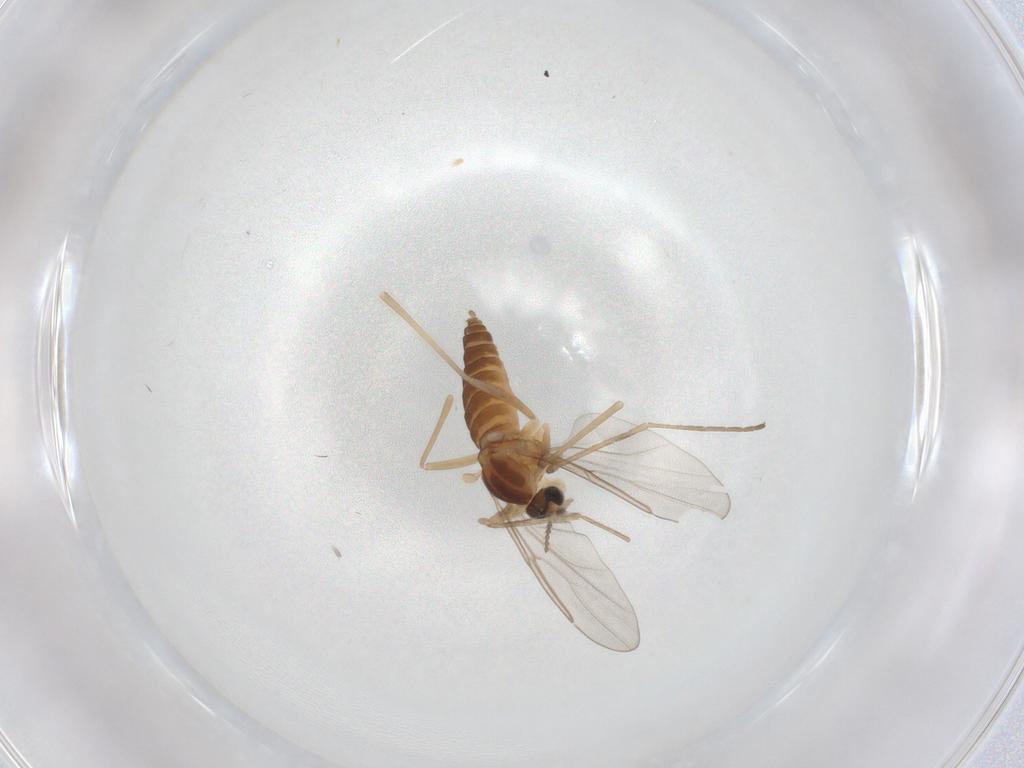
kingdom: Animalia
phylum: Arthropoda
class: Insecta
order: Diptera
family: Cecidomyiidae
